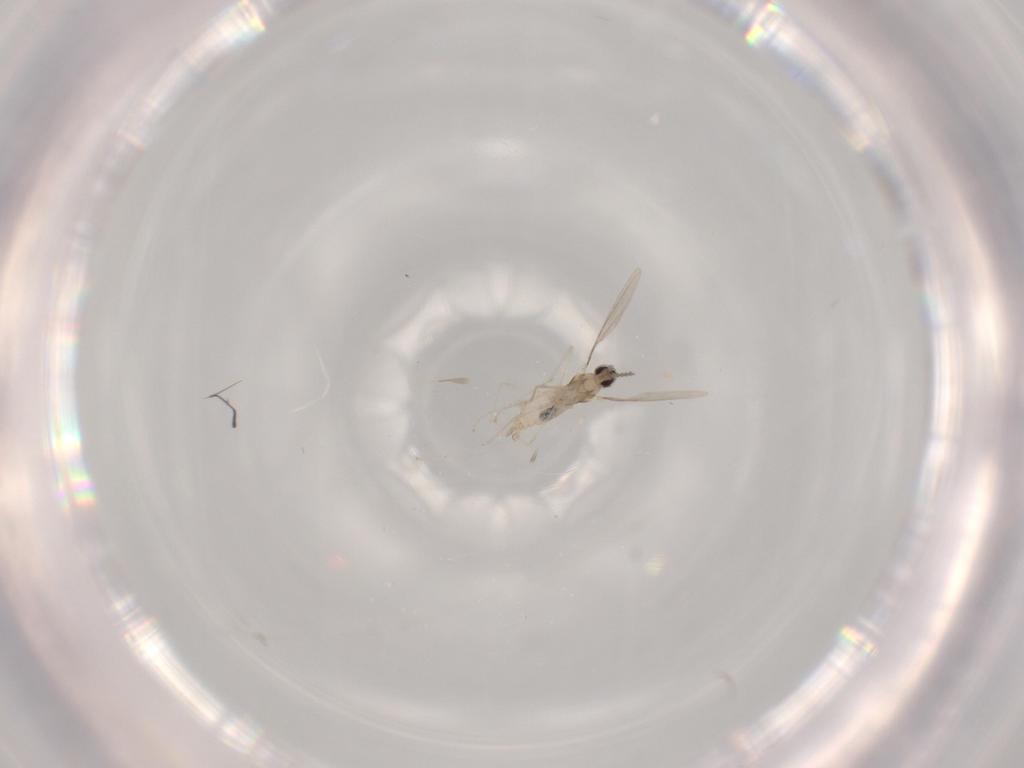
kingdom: Animalia
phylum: Arthropoda
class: Insecta
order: Diptera
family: Cecidomyiidae
